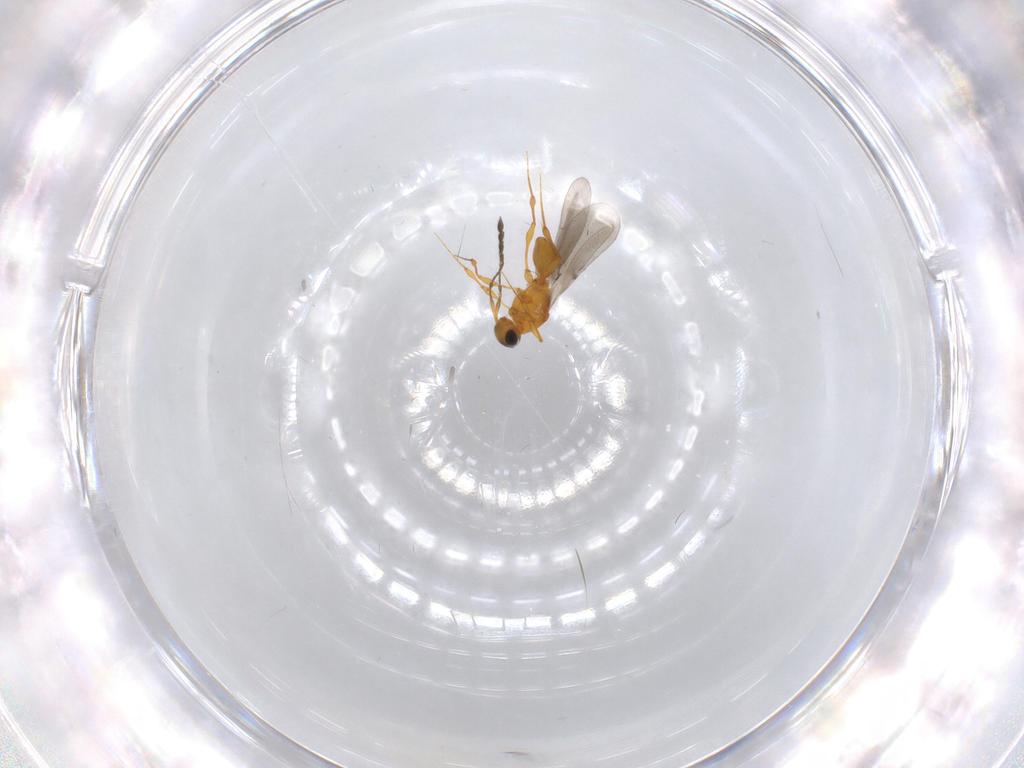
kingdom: Animalia
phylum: Arthropoda
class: Insecta
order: Hymenoptera
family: Platygastridae
